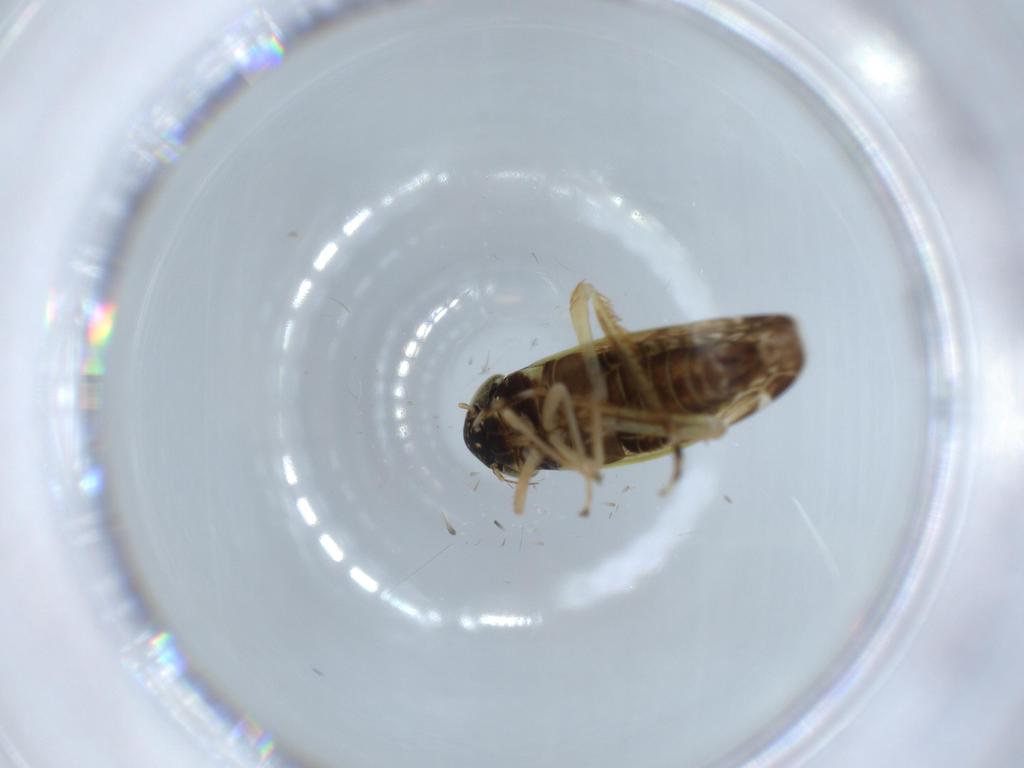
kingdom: Animalia
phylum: Arthropoda
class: Insecta
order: Hemiptera
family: Cicadellidae
